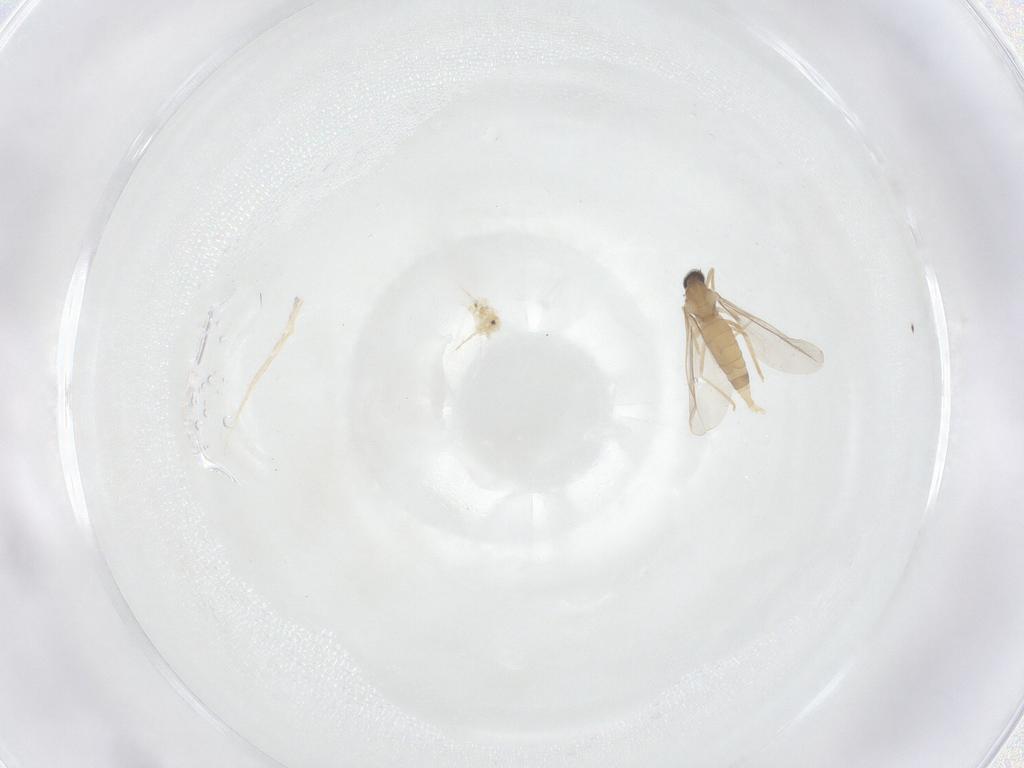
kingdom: Animalia
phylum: Arthropoda
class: Insecta
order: Diptera
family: Cecidomyiidae
